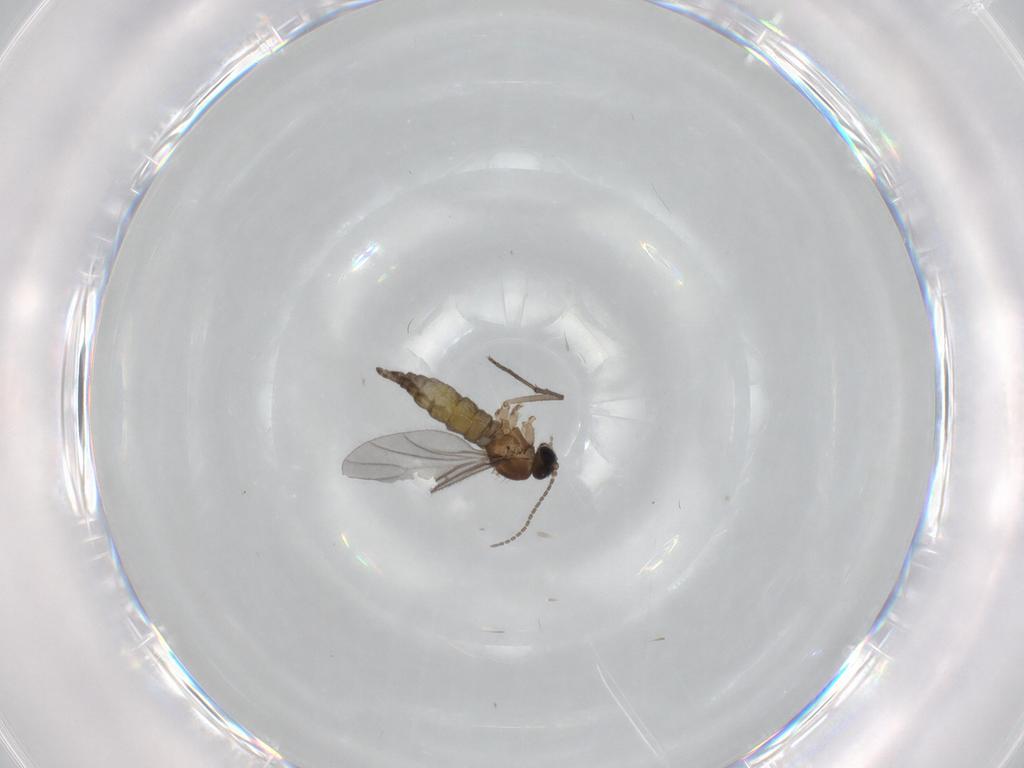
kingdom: Animalia
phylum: Arthropoda
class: Insecta
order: Diptera
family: Sciaridae
